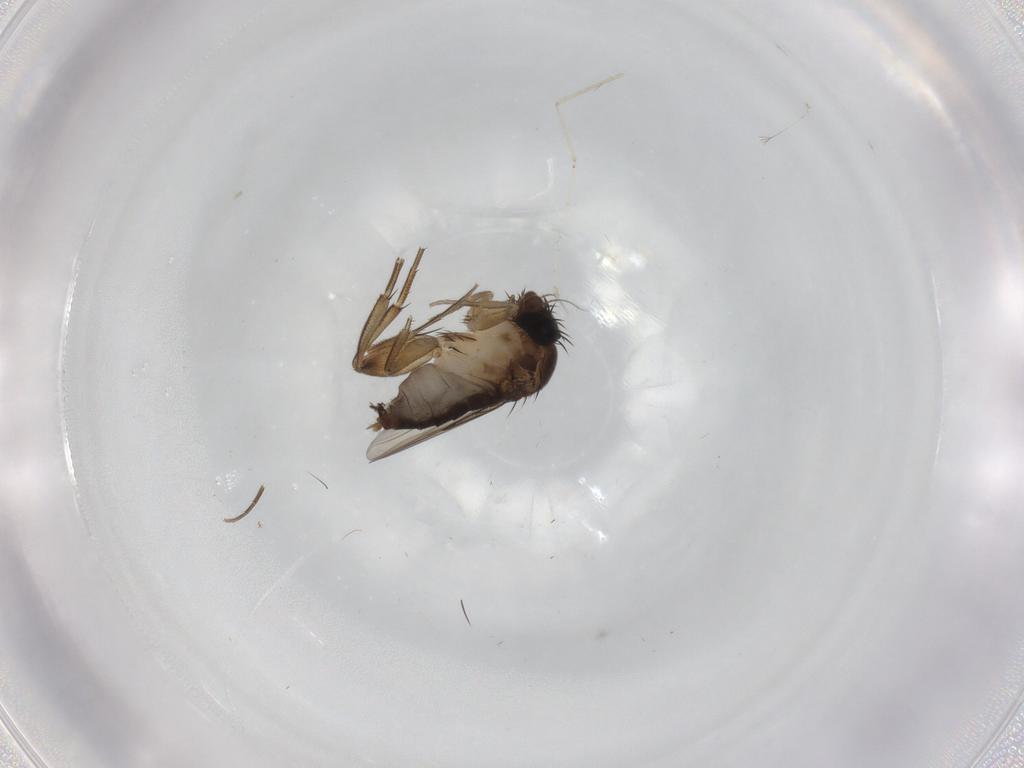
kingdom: Animalia
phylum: Arthropoda
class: Insecta
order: Diptera
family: Phoridae
